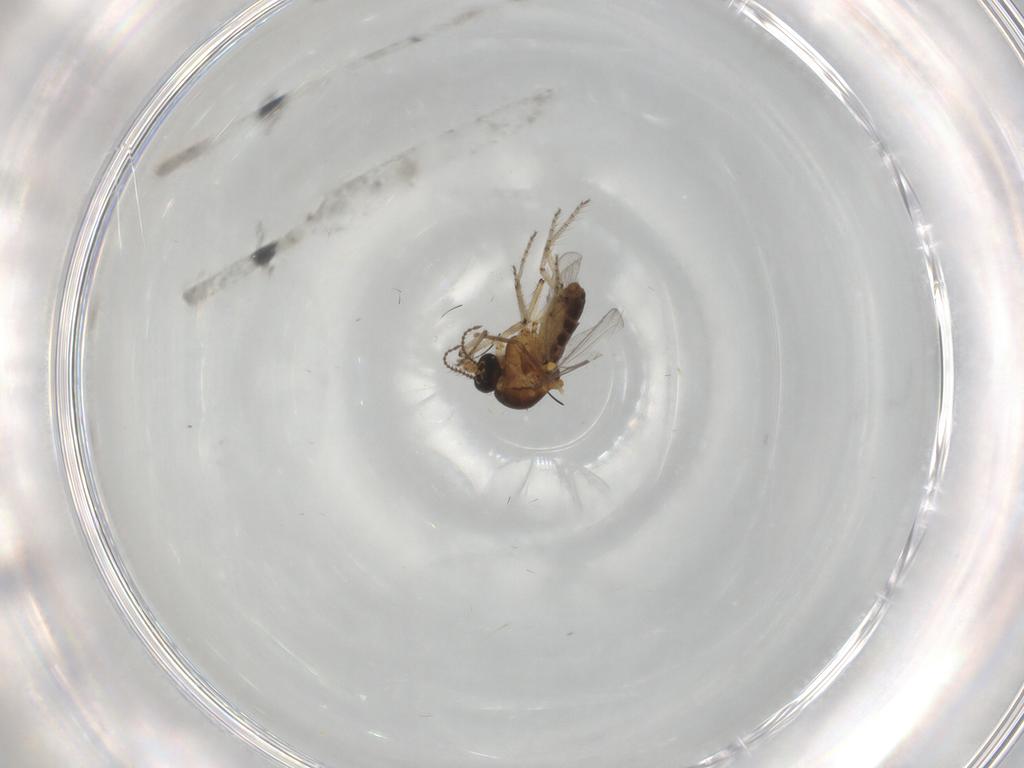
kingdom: Animalia
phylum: Arthropoda
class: Insecta
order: Diptera
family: Ceratopogonidae
